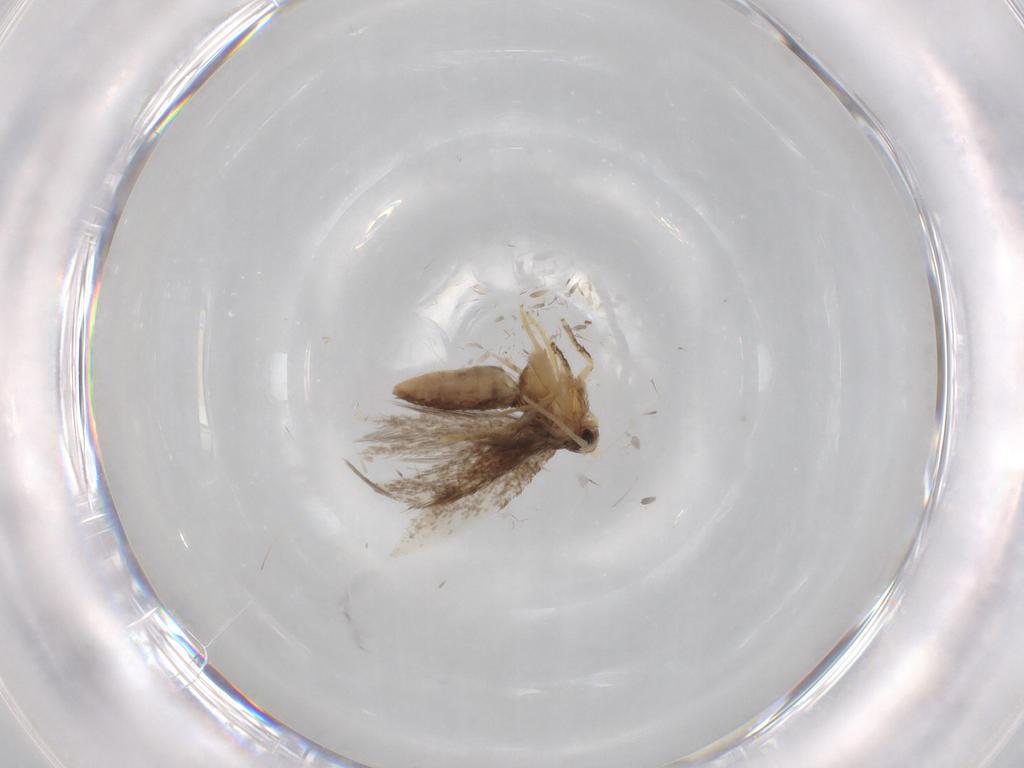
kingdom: Animalia
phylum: Arthropoda
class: Insecta
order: Lepidoptera
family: Nepticulidae
